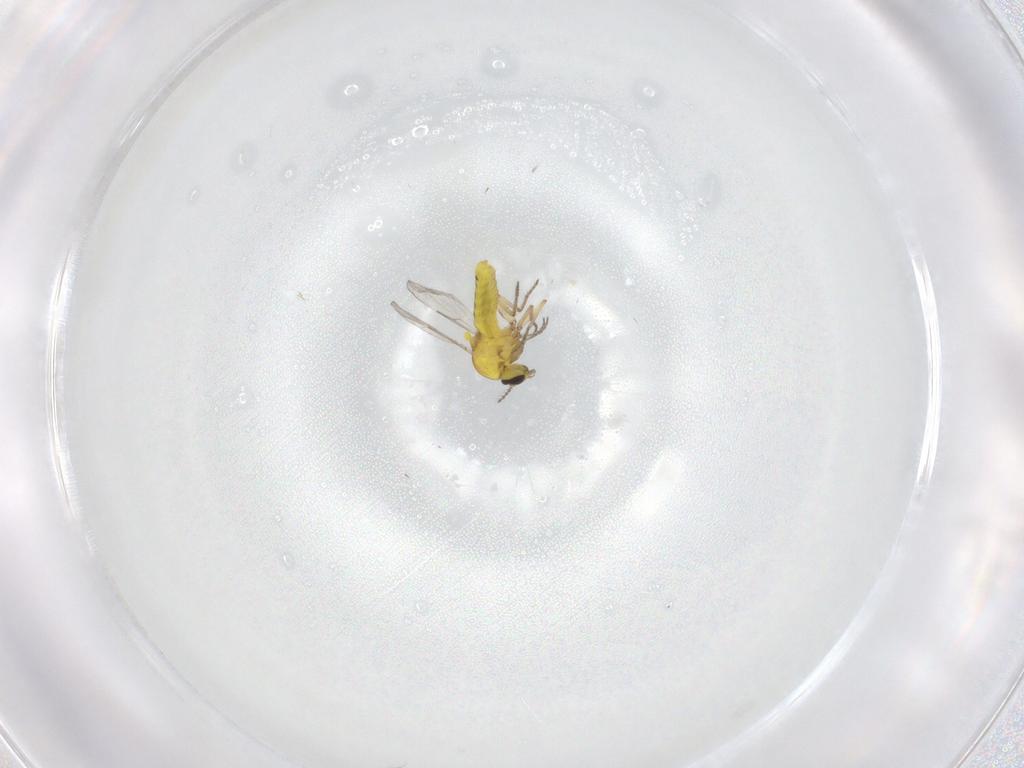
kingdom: Animalia
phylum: Arthropoda
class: Insecta
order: Diptera
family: Ceratopogonidae
